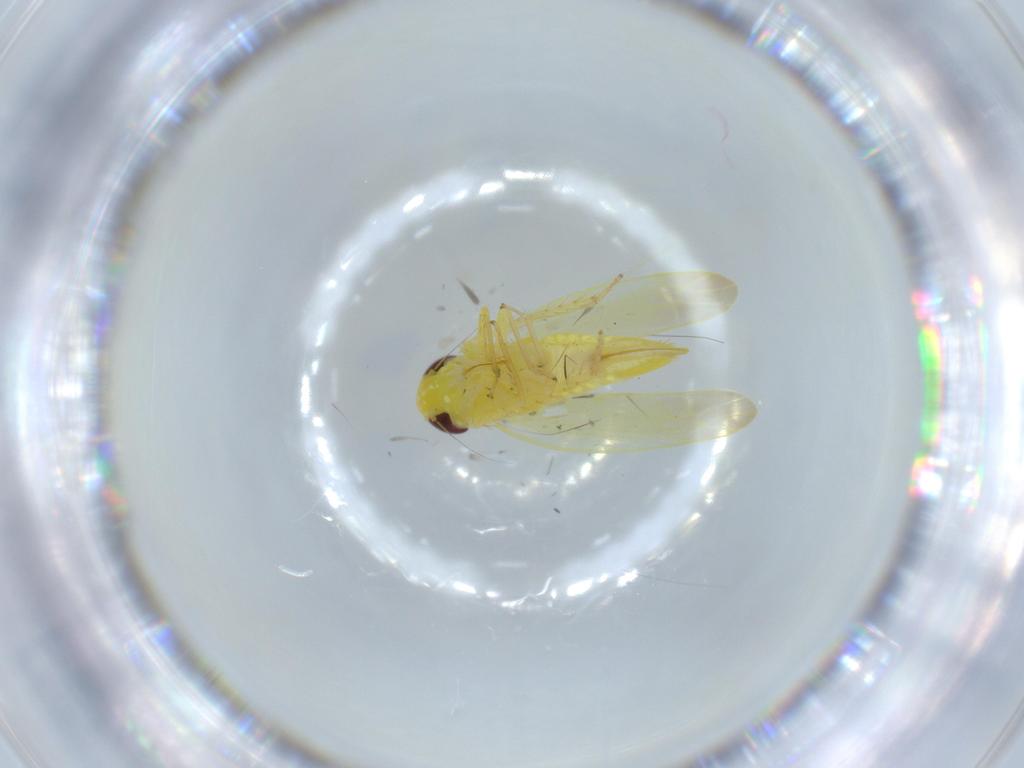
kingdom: Animalia
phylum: Arthropoda
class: Insecta
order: Hemiptera
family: Cicadellidae
